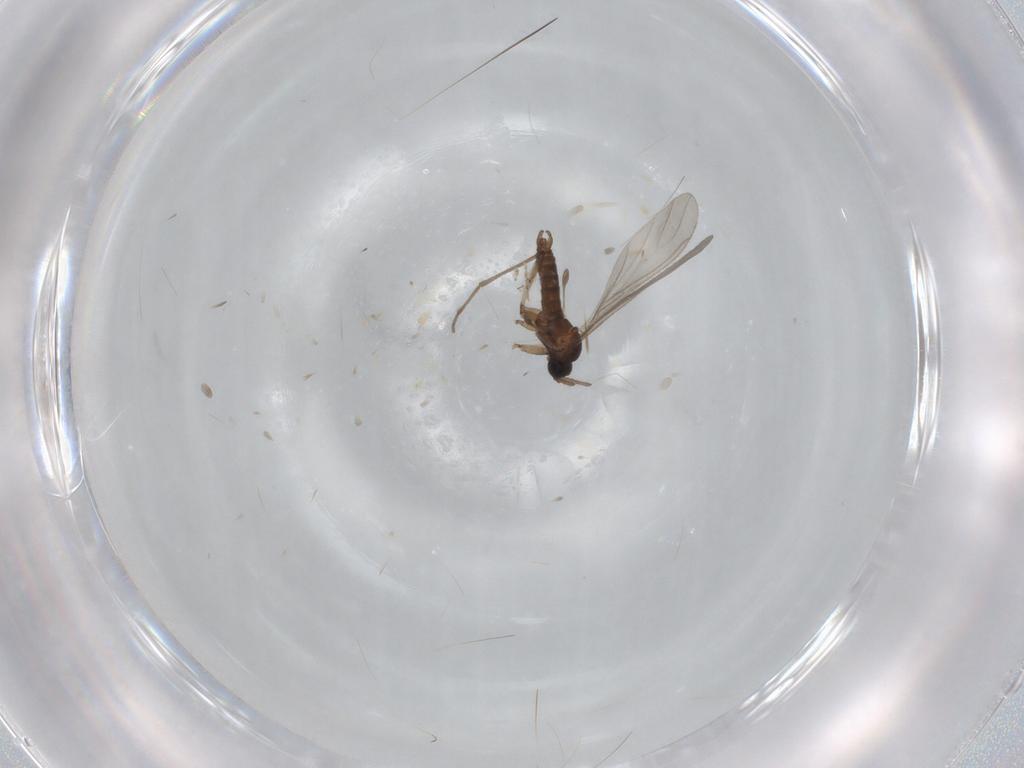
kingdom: Animalia
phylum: Arthropoda
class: Insecta
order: Diptera
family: Sciaridae
